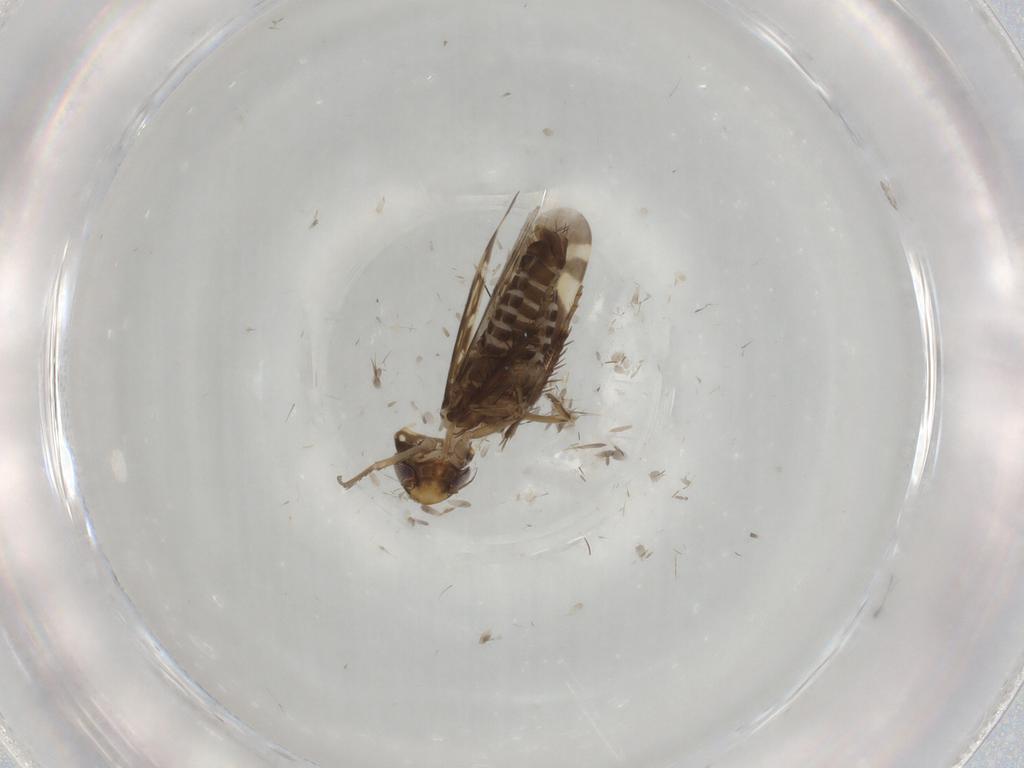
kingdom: Animalia
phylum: Arthropoda
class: Insecta
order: Hemiptera
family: Cicadellidae
